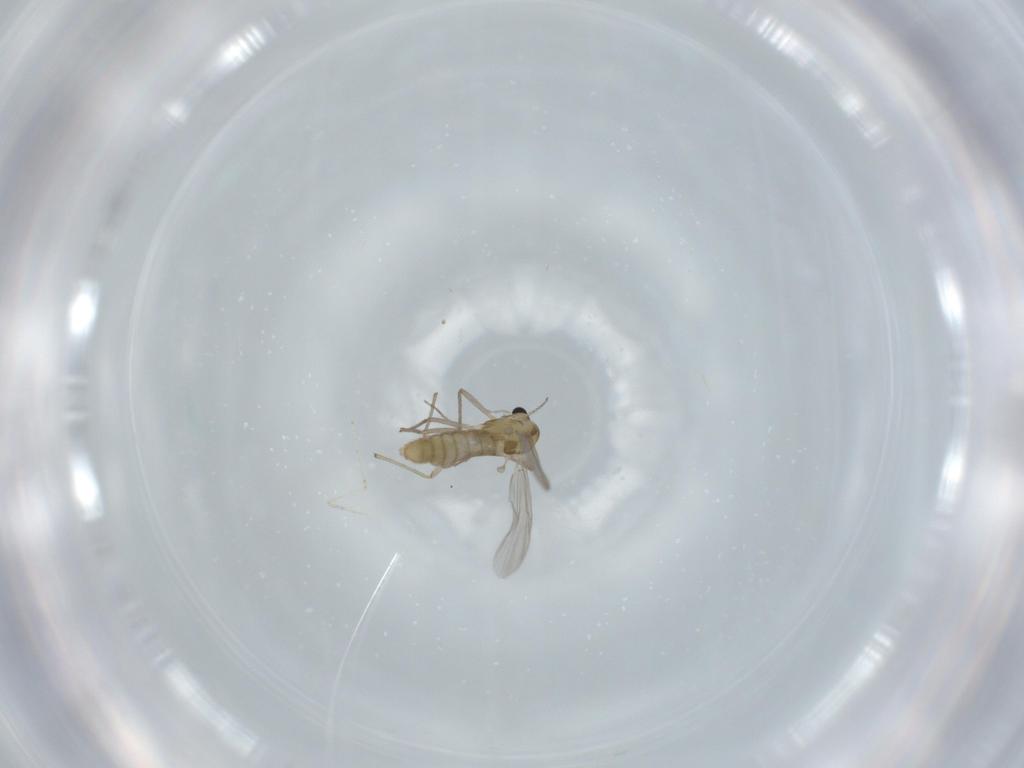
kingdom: Animalia
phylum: Arthropoda
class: Insecta
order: Diptera
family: Chironomidae
